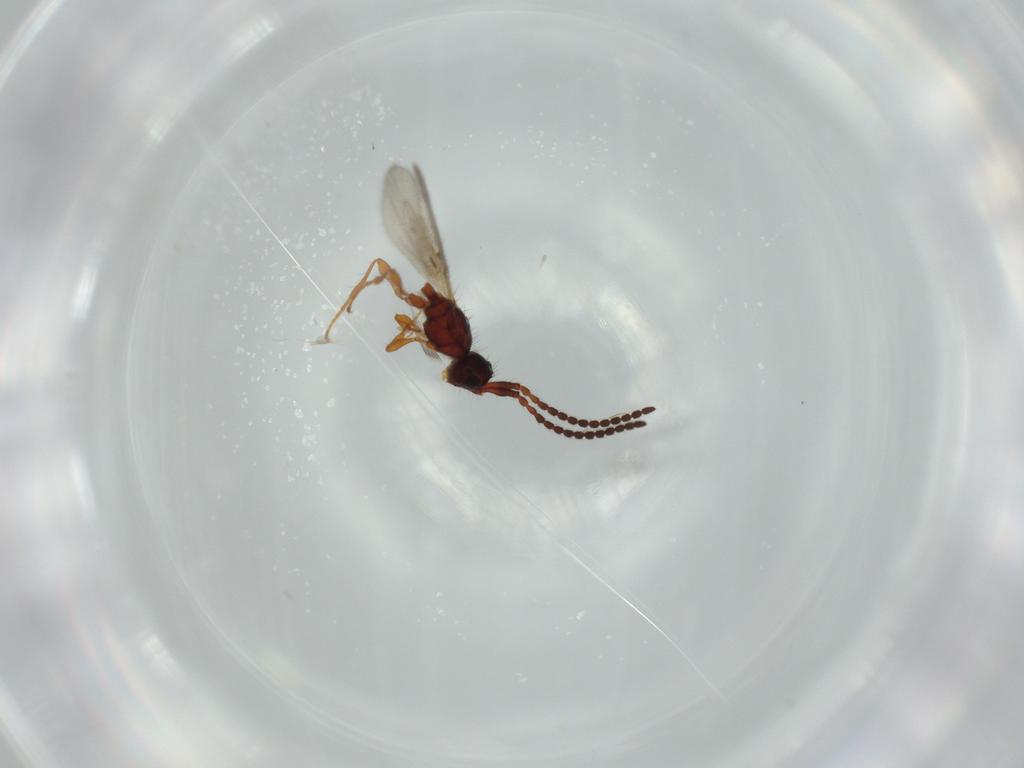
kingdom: Animalia
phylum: Arthropoda
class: Insecta
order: Hymenoptera
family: Diapriidae
